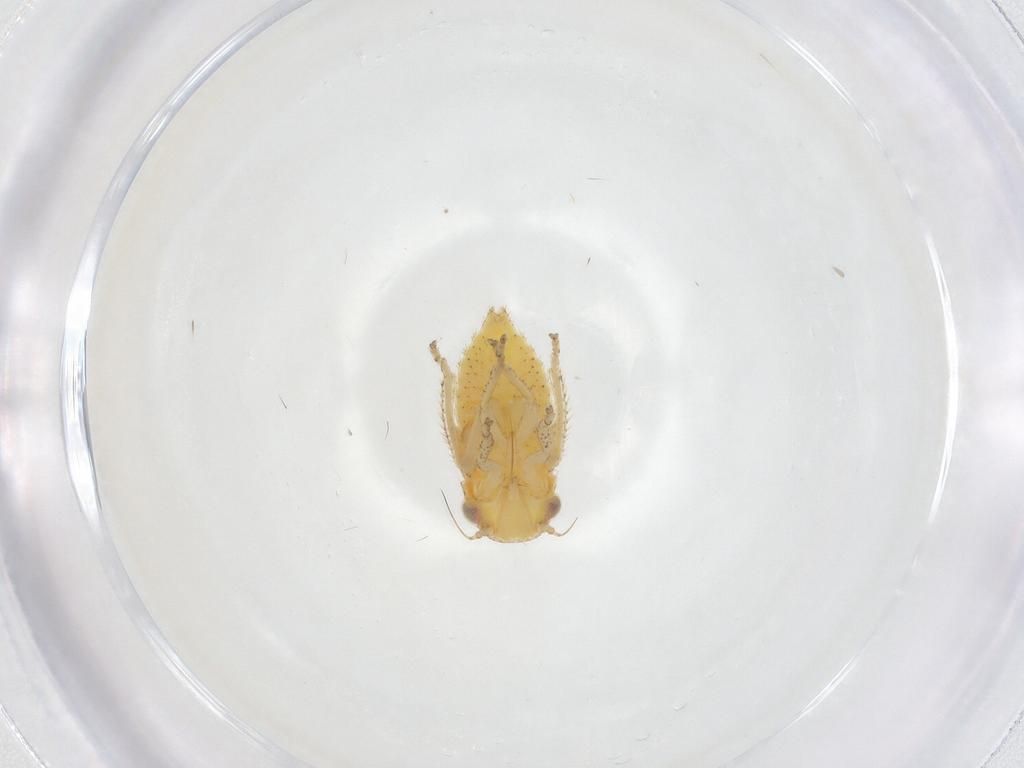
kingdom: Animalia
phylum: Arthropoda
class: Insecta
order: Hemiptera
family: Cicadellidae
